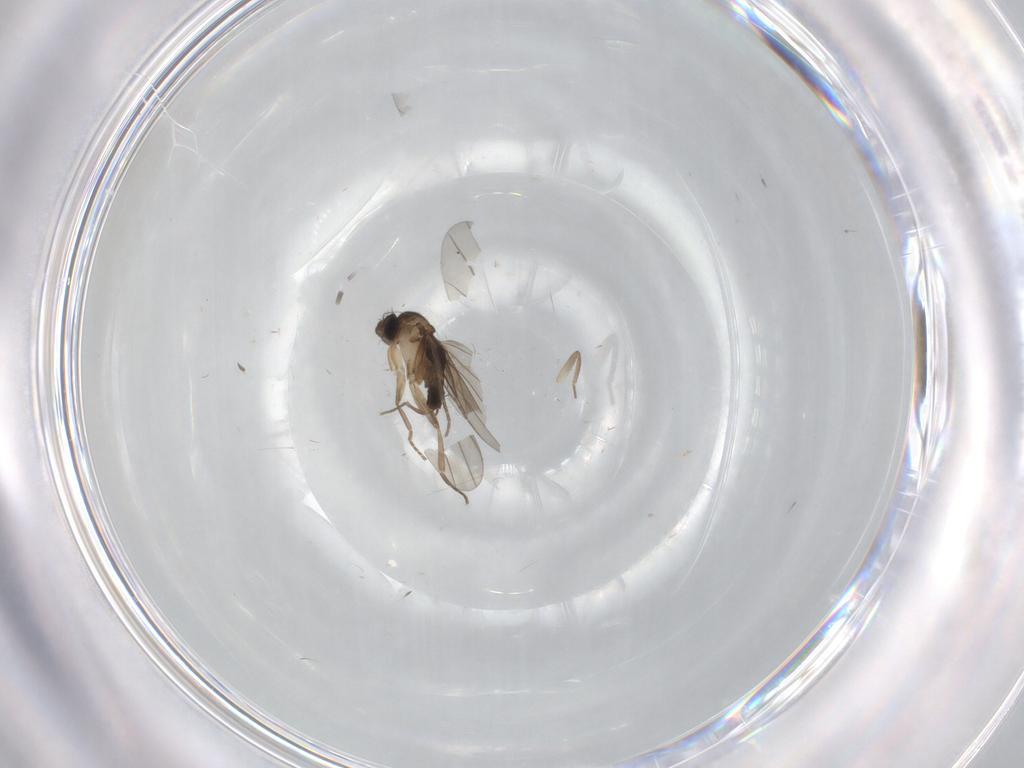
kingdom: Animalia
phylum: Arthropoda
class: Insecta
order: Diptera
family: Phoridae
